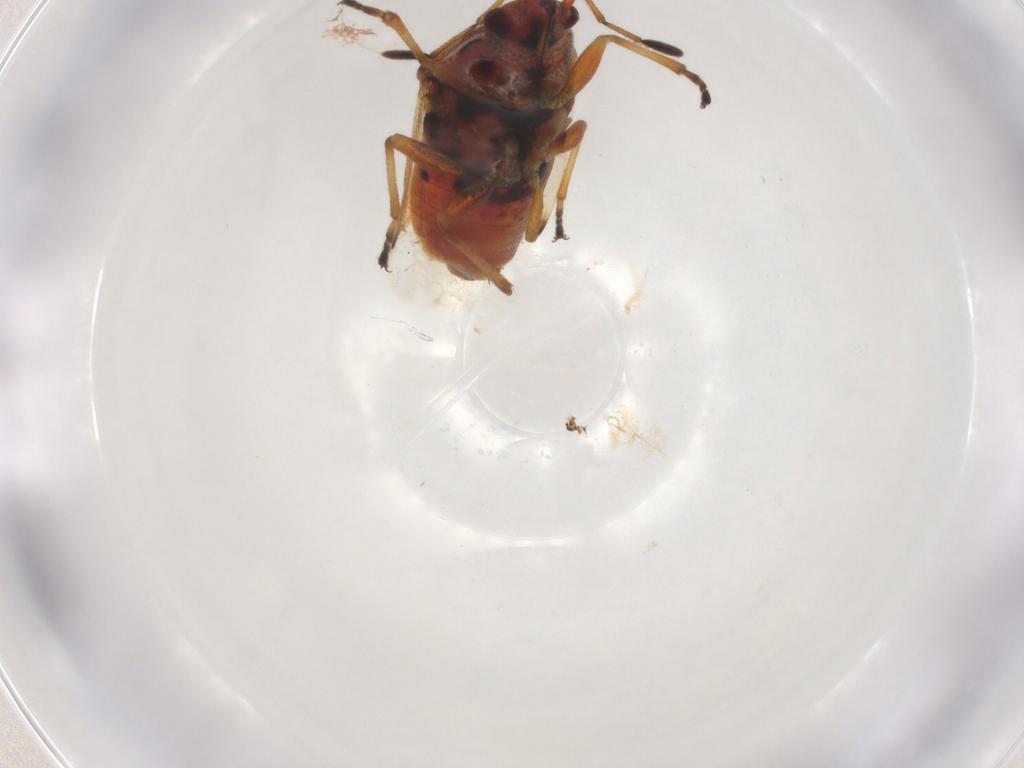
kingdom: Animalia
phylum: Arthropoda
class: Insecta
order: Hemiptera
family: Lygaeidae
